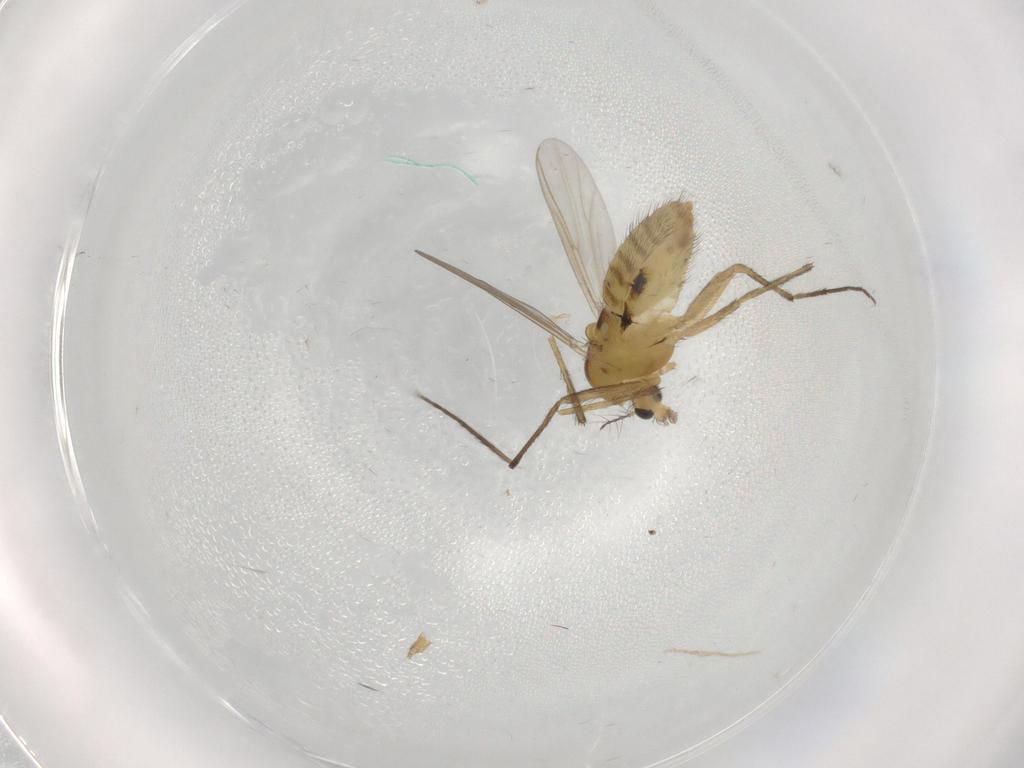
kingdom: Animalia
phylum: Arthropoda
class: Insecta
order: Diptera
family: Chironomidae
